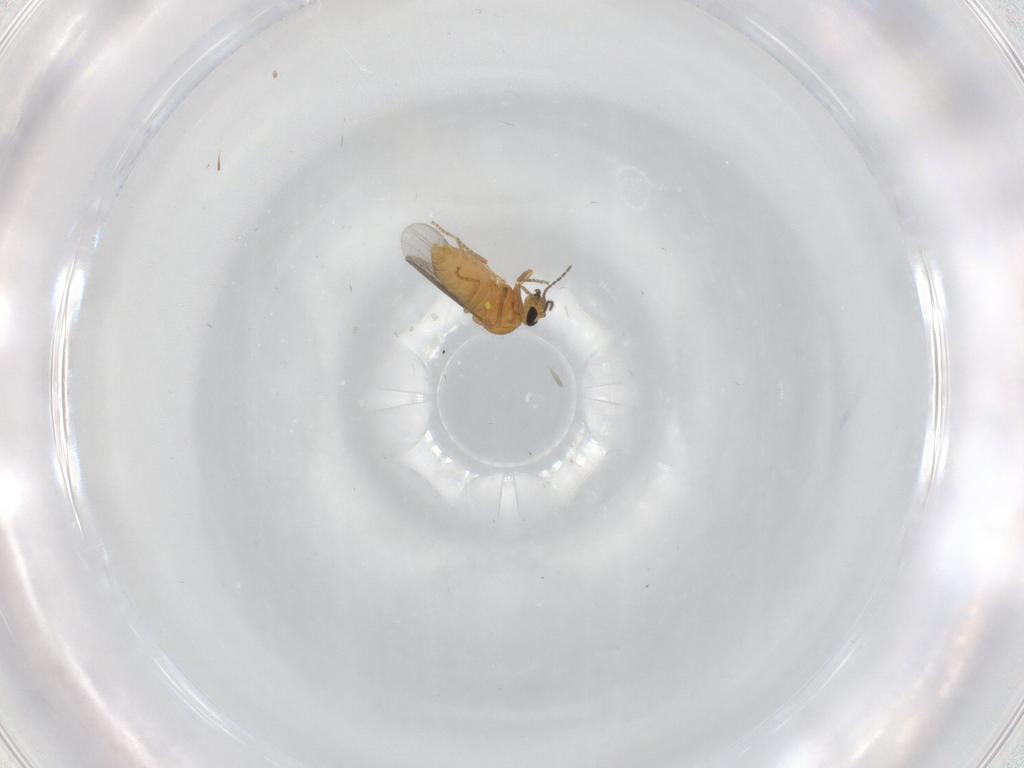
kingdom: Animalia
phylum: Arthropoda
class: Insecta
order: Diptera
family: Ceratopogonidae
